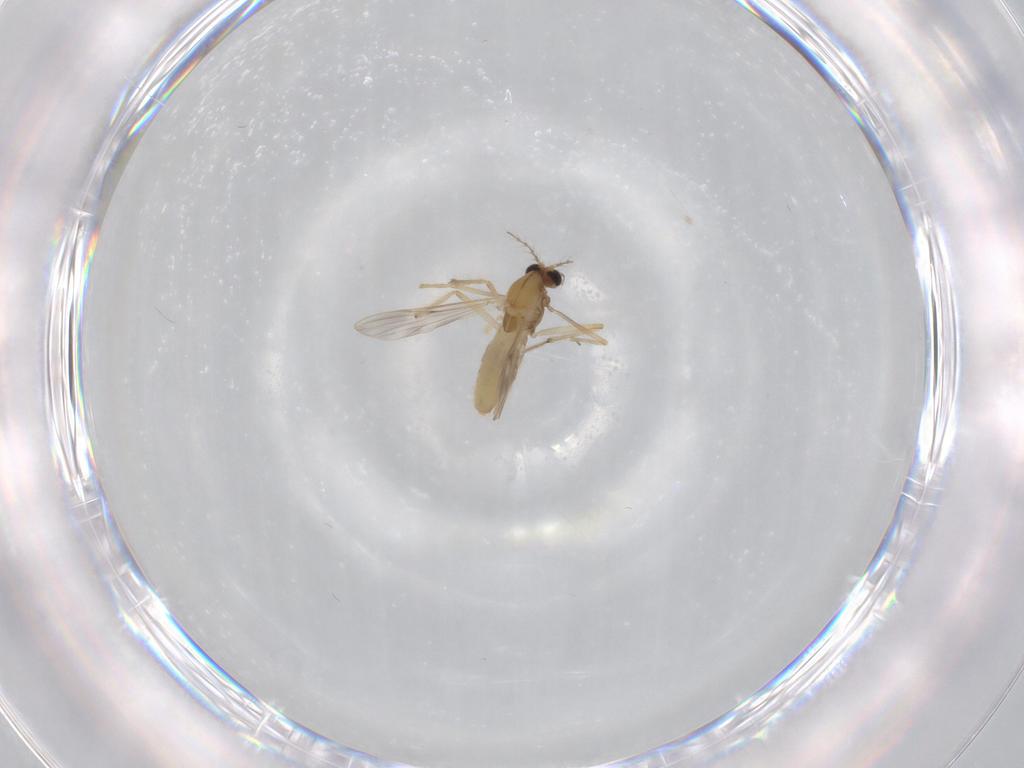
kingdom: Animalia
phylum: Arthropoda
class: Insecta
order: Diptera
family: Chironomidae
